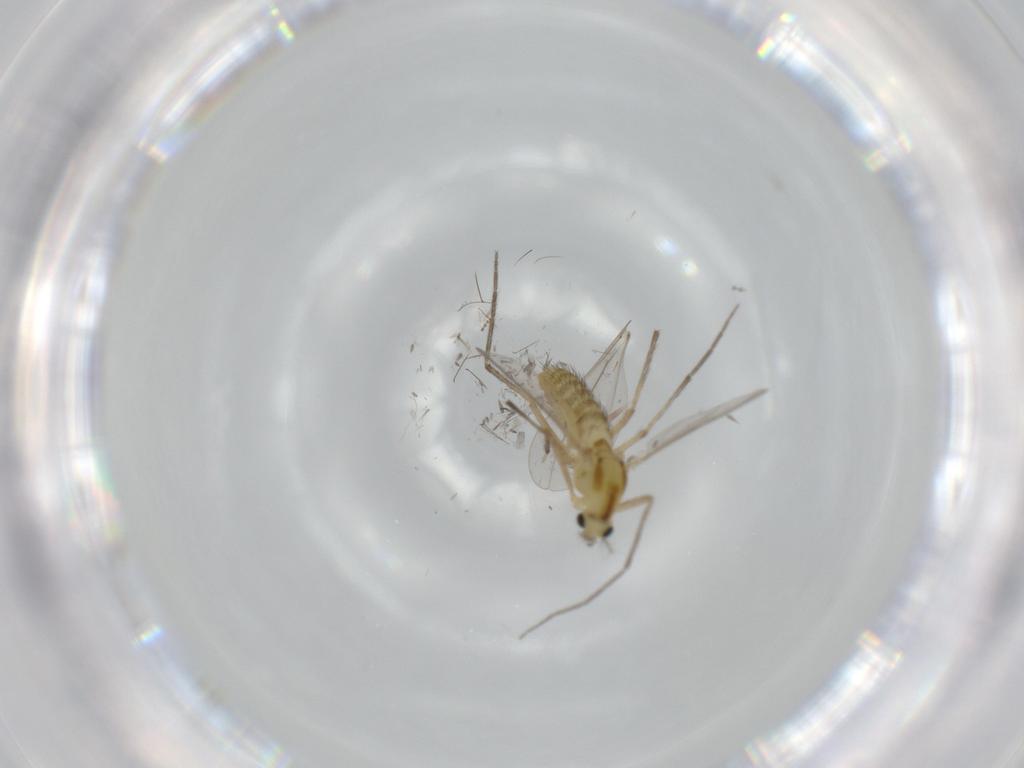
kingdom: Animalia
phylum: Arthropoda
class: Insecta
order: Diptera
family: Chironomidae
